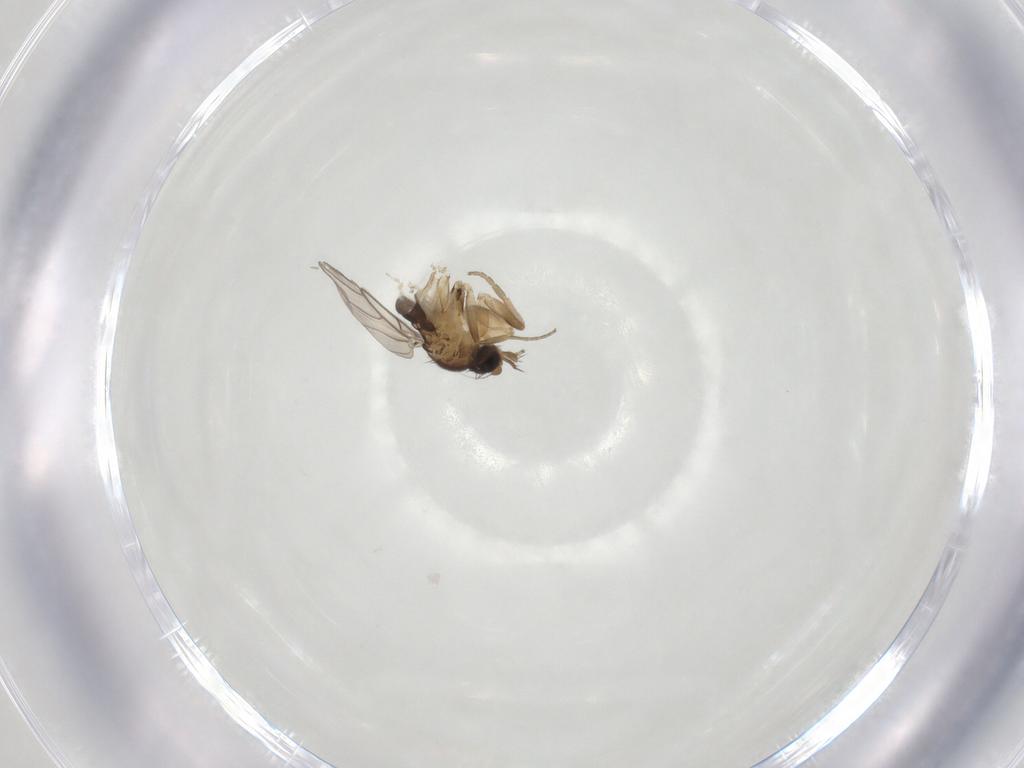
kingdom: Animalia
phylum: Arthropoda
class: Insecta
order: Diptera
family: Phoridae
